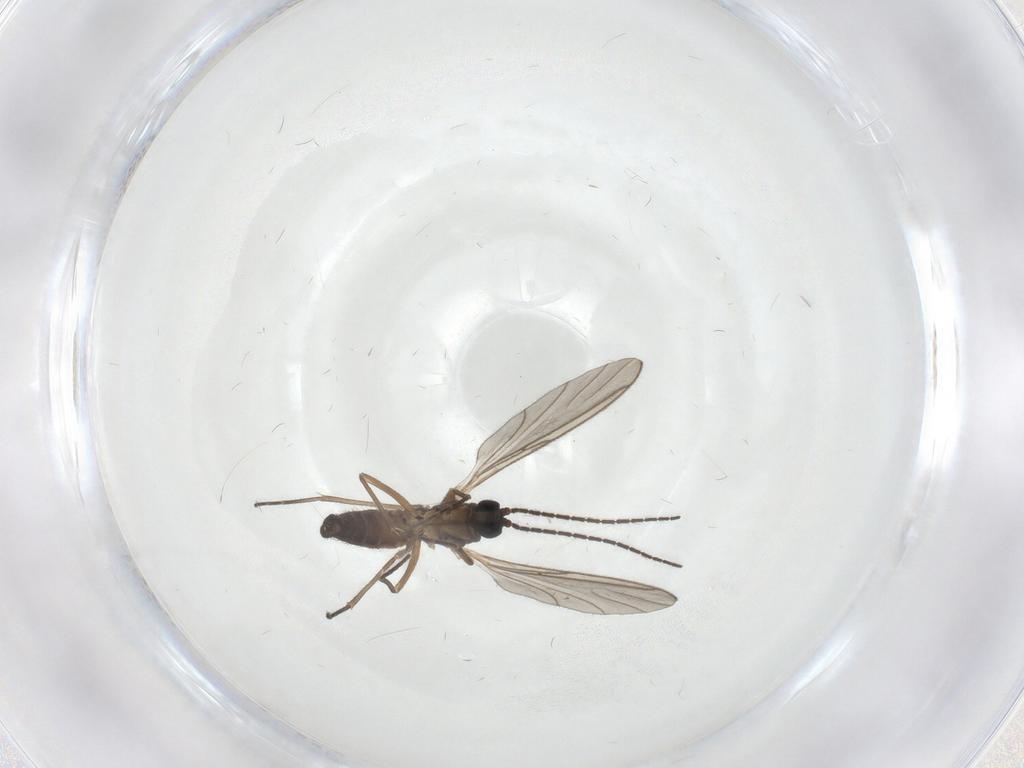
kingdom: Animalia
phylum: Arthropoda
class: Insecta
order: Diptera
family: Sciaridae
